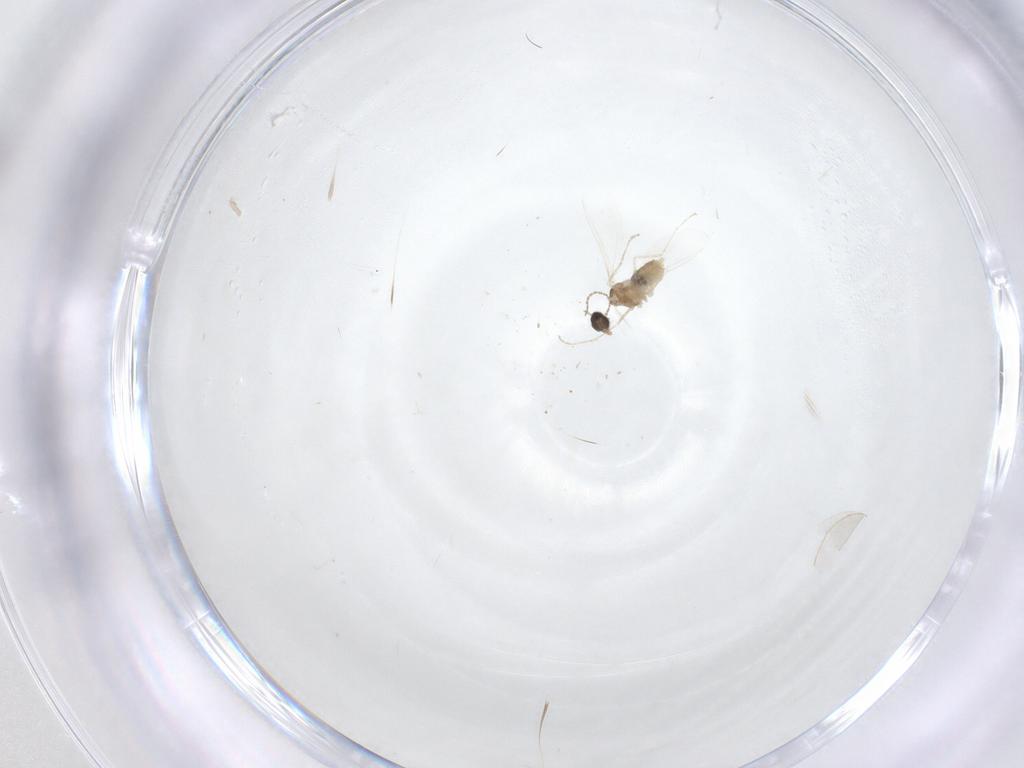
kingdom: Animalia
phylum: Arthropoda
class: Insecta
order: Diptera
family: Cecidomyiidae
